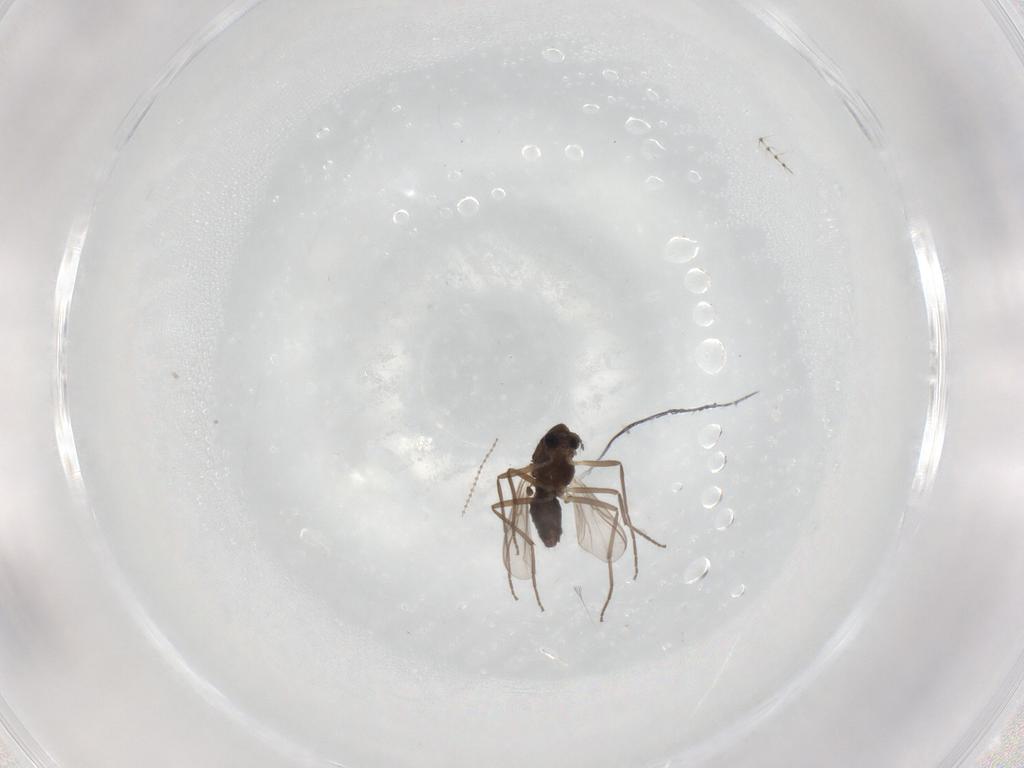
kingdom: Animalia
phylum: Arthropoda
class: Insecta
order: Diptera
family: Chironomidae
